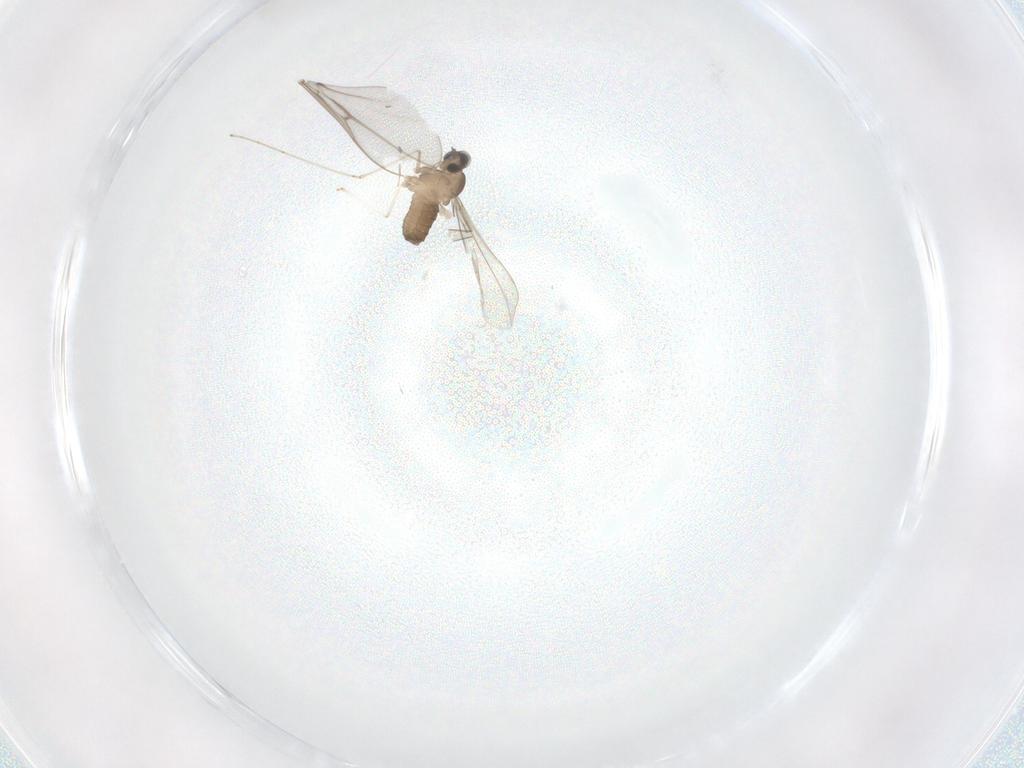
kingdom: Animalia
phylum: Arthropoda
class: Insecta
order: Diptera
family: Cecidomyiidae
